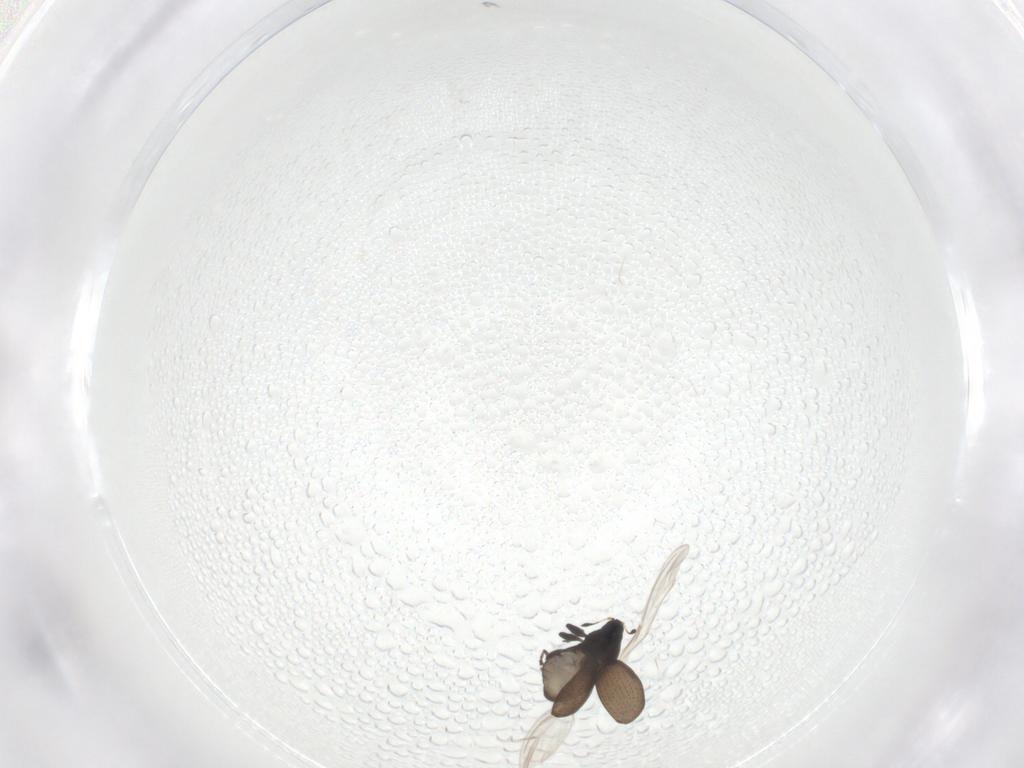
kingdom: Animalia
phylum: Arthropoda
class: Insecta
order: Coleoptera
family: Curculionidae
